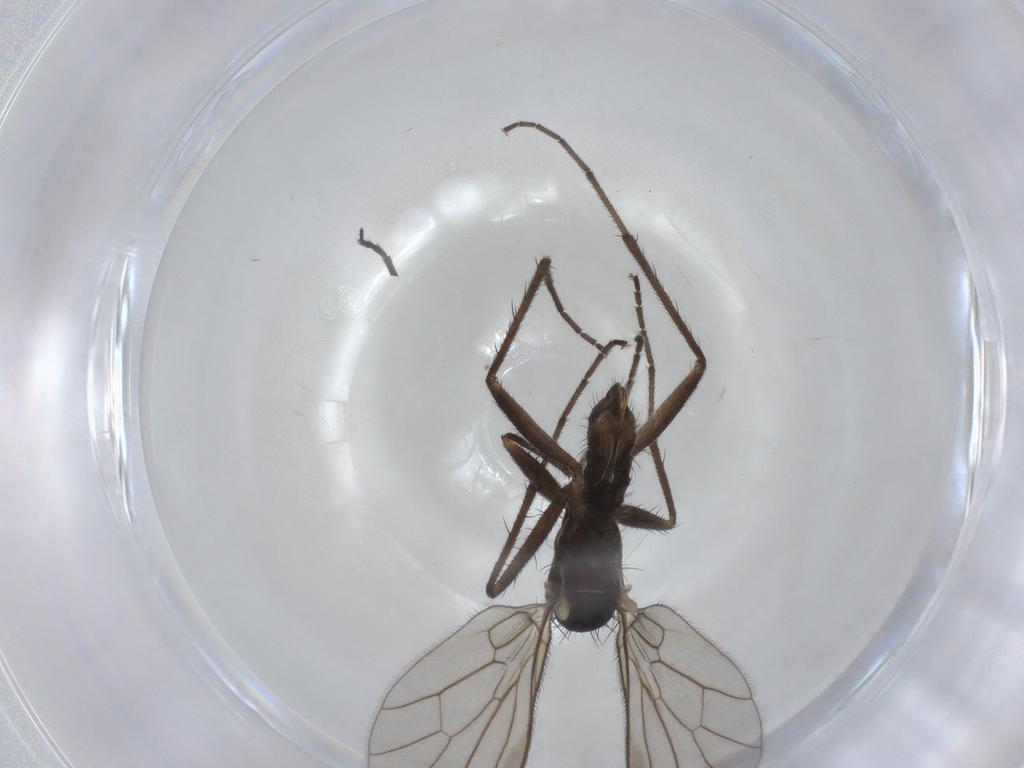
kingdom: Animalia
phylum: Arthropoda
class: Insecta
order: Diptera
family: Empididae
